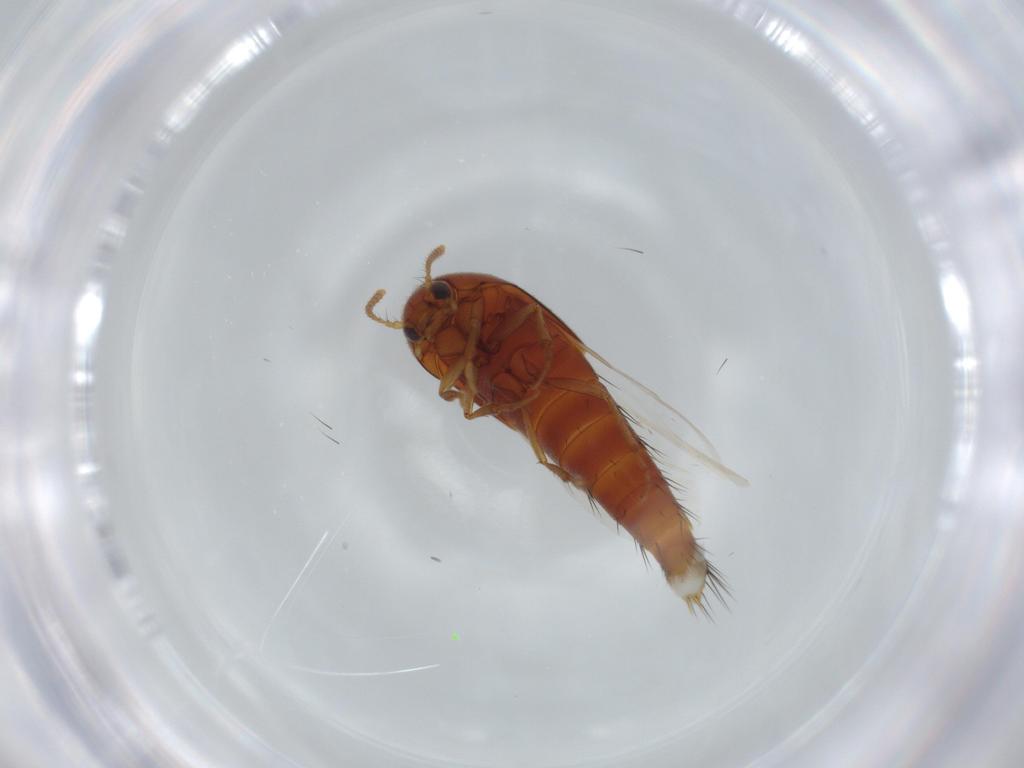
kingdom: Animalia
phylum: Arthropoda
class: Insecta
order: Coleoptera
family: Staphylinidae
